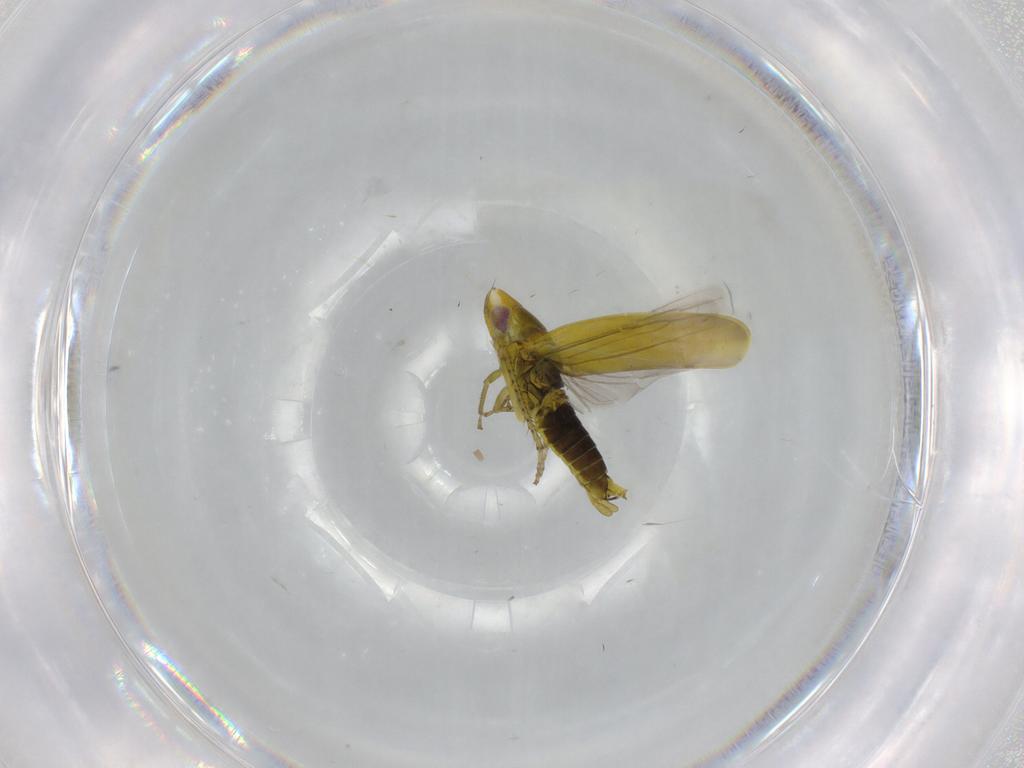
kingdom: Animalia
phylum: Arthropoda
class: Insecta
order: Hemiptera
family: Cicadellidae
